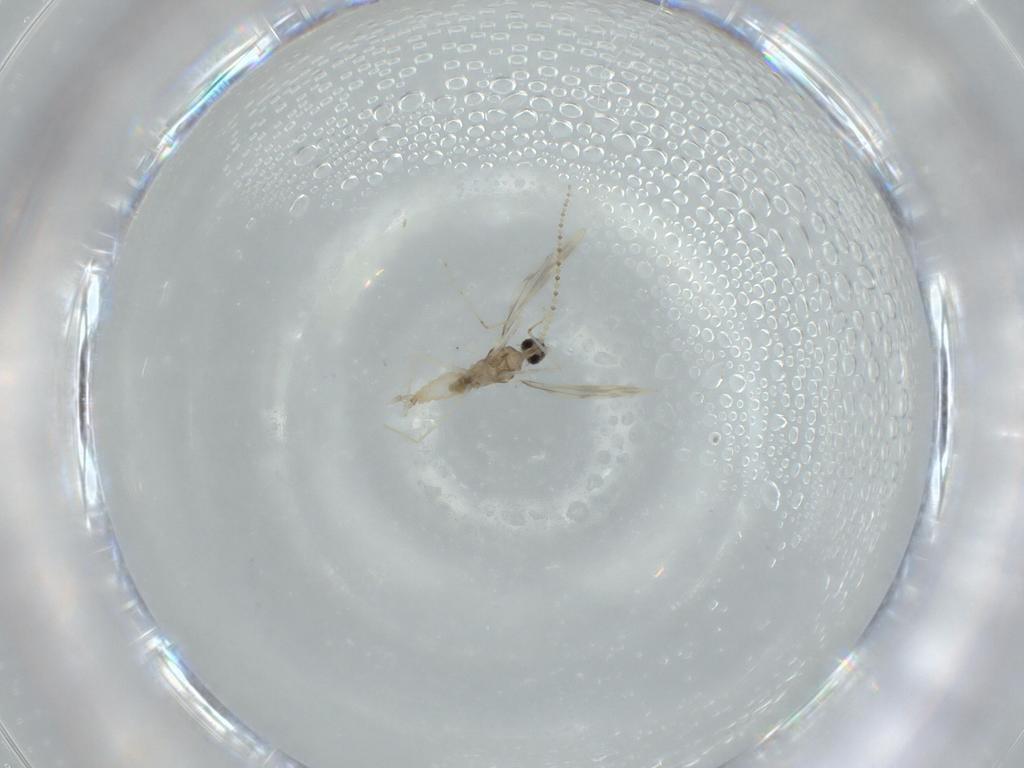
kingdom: Animalia
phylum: Arthropoda
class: Insecta
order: Diptera
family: Cecidomyiidae
